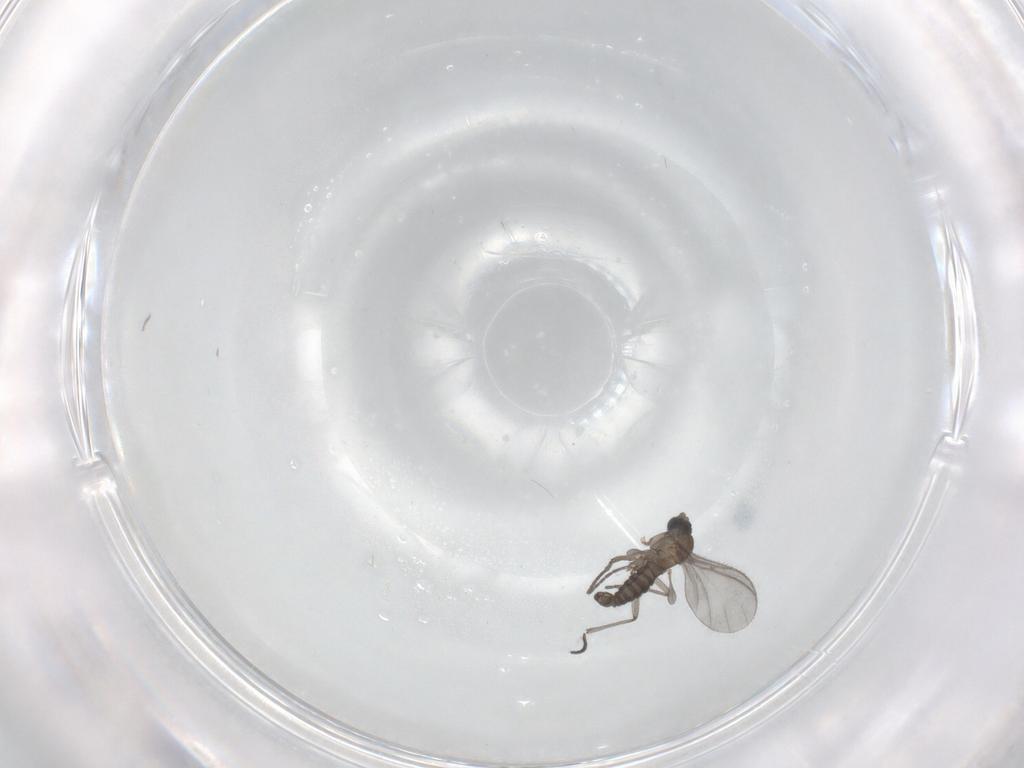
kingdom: Animalia
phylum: Arthropoda
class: Insecta
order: Diptera
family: Sciaridae
